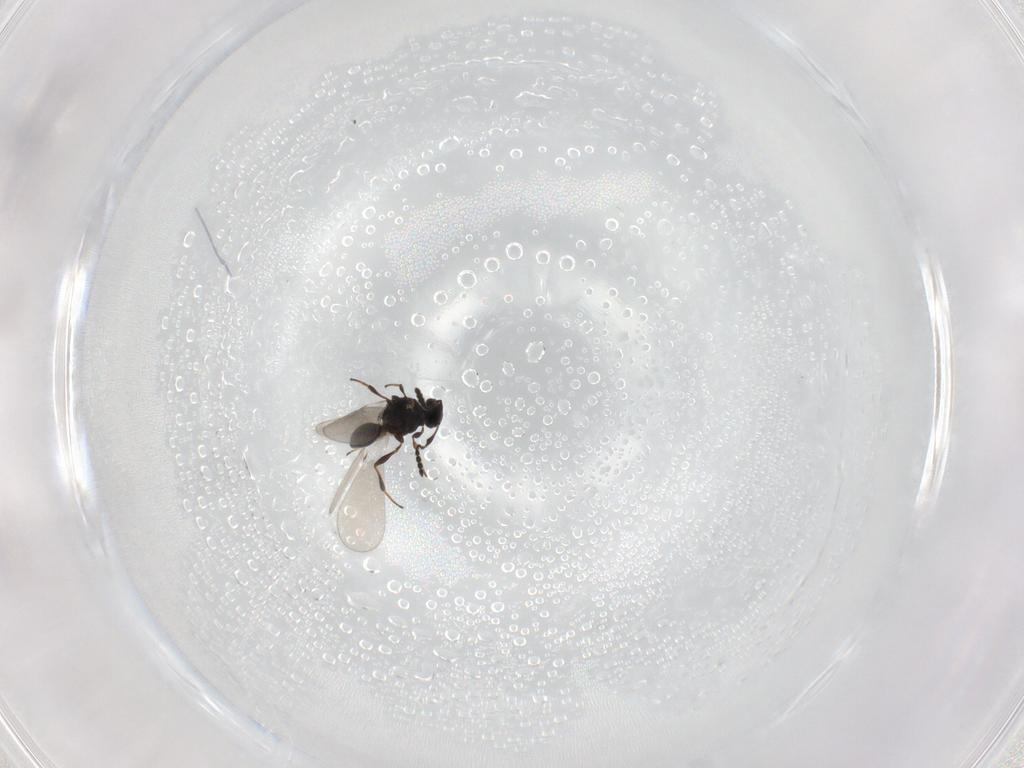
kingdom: Animalia
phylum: Arthropoda
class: Insecta
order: Hymenoptera
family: Platygastridae
